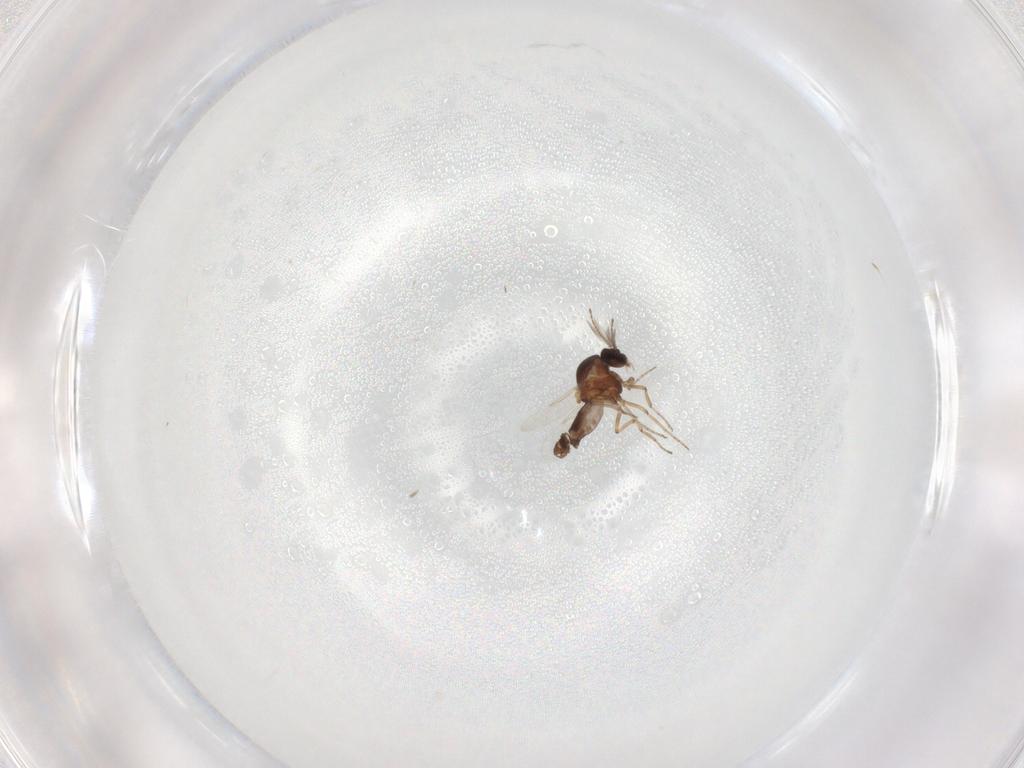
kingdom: Animalia
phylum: Arthropoda
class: Insecta
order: Diptera
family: Ceratopogonidae
